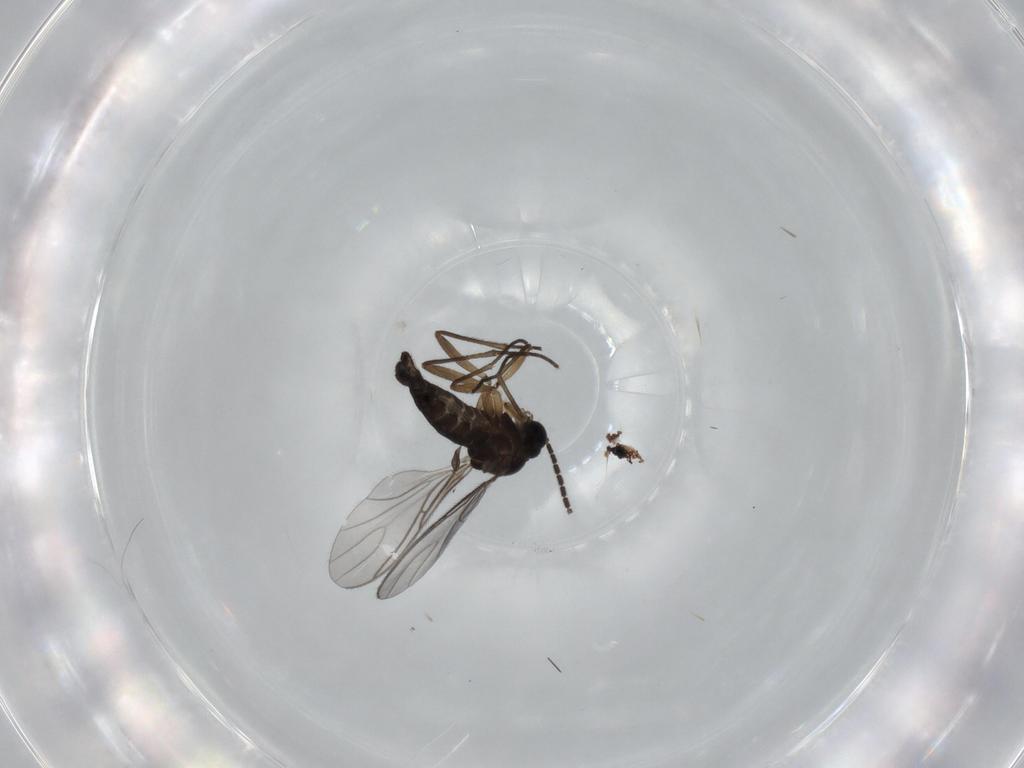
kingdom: Animalia
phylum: Arthropoda
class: Insecta
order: Diptera
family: Sciaridae
